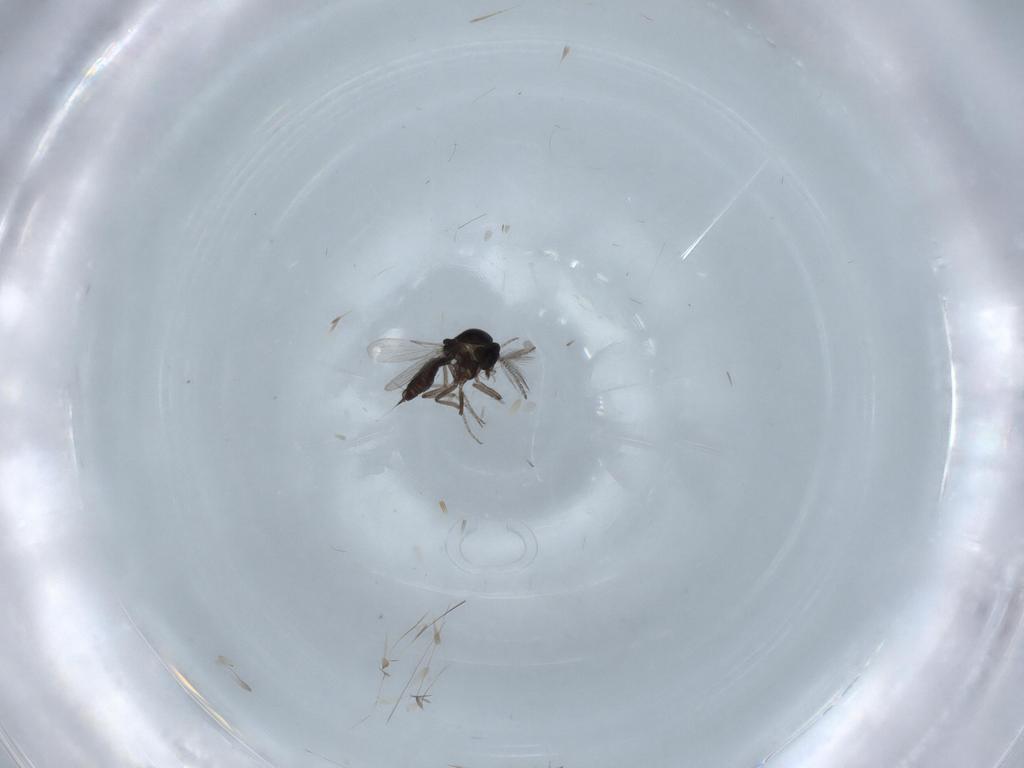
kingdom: Animalia
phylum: Arthropoda
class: Insecta
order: Diptera
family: Ceratopogonidae
